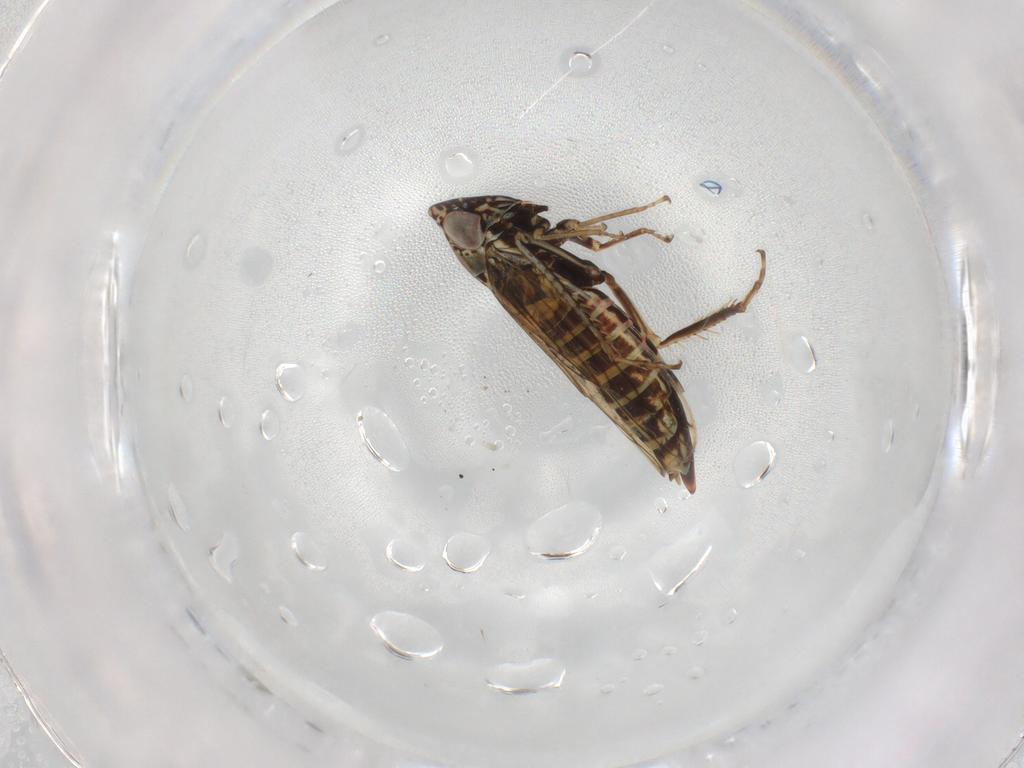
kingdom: Animalia
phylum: Arthropoda
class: Insecta
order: Hemiptera
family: Cicadellidae
